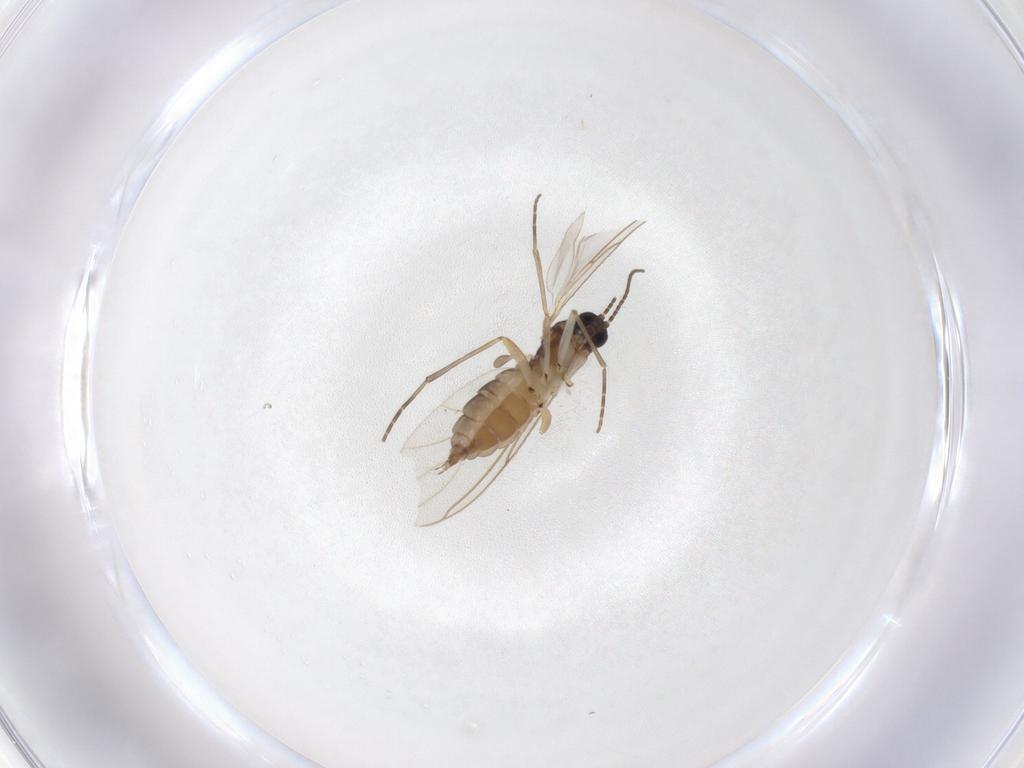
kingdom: Animalia
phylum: Arthropoda
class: Insecta
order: Diptera
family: Sciaridae
